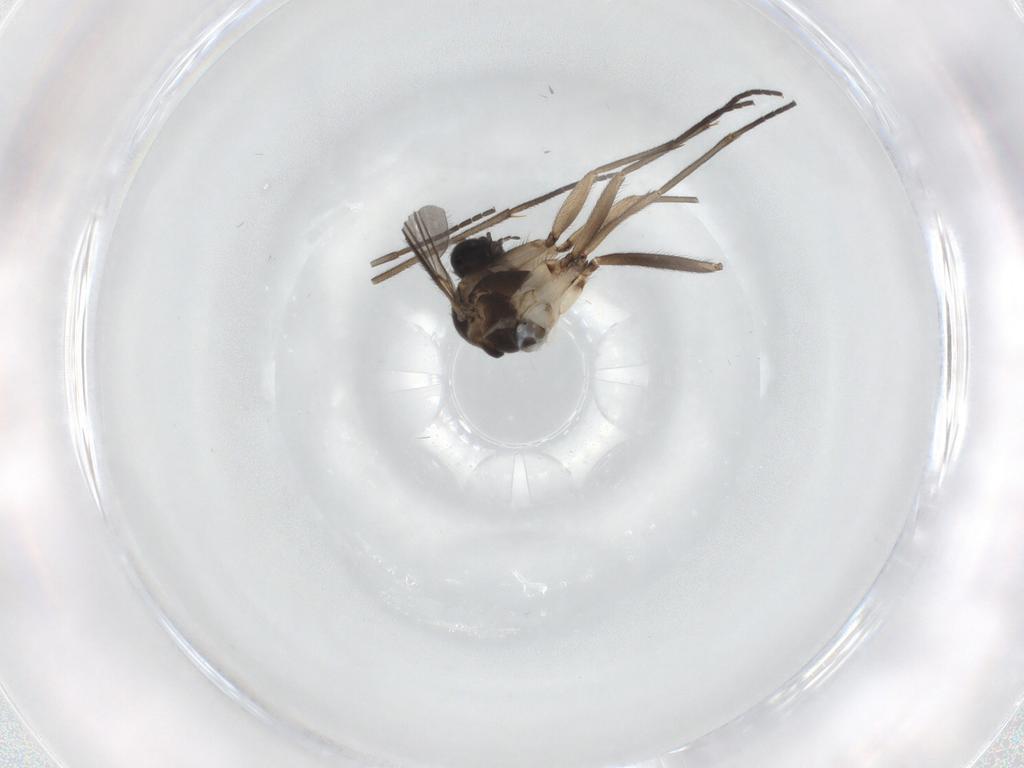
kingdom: Animalia
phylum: Arthropoda
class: Insecta
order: Diptera
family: Sciaridae
